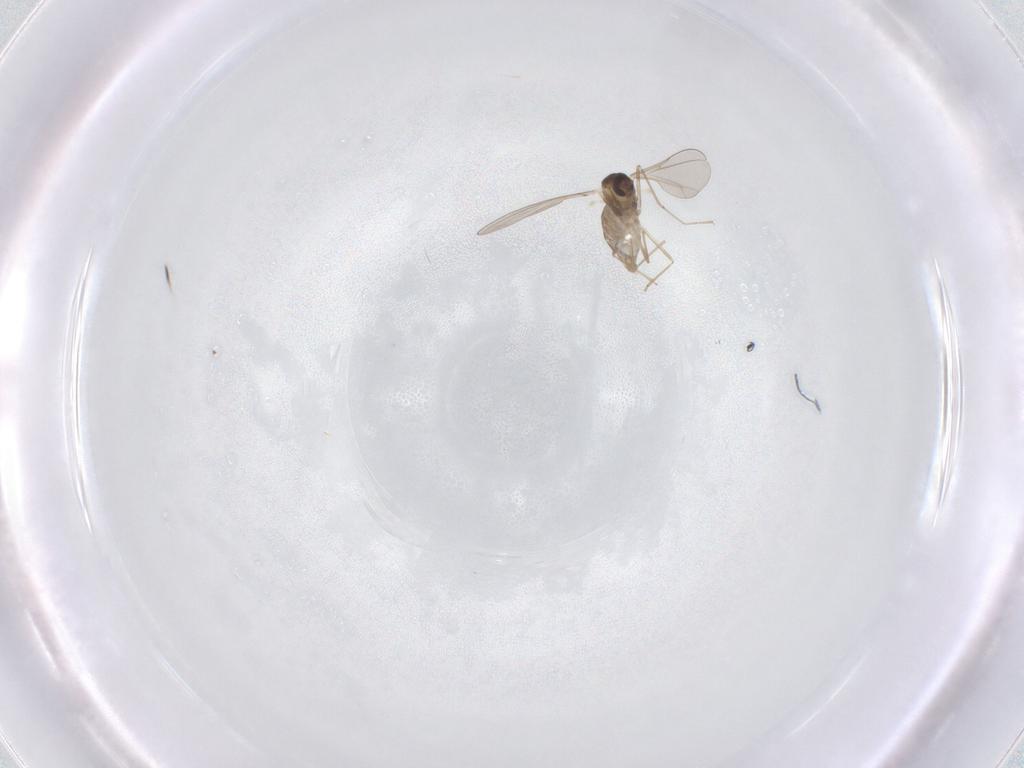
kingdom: Animalia
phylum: Arthropoda
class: Insecta
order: Diptera
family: Cecidomyiidae
